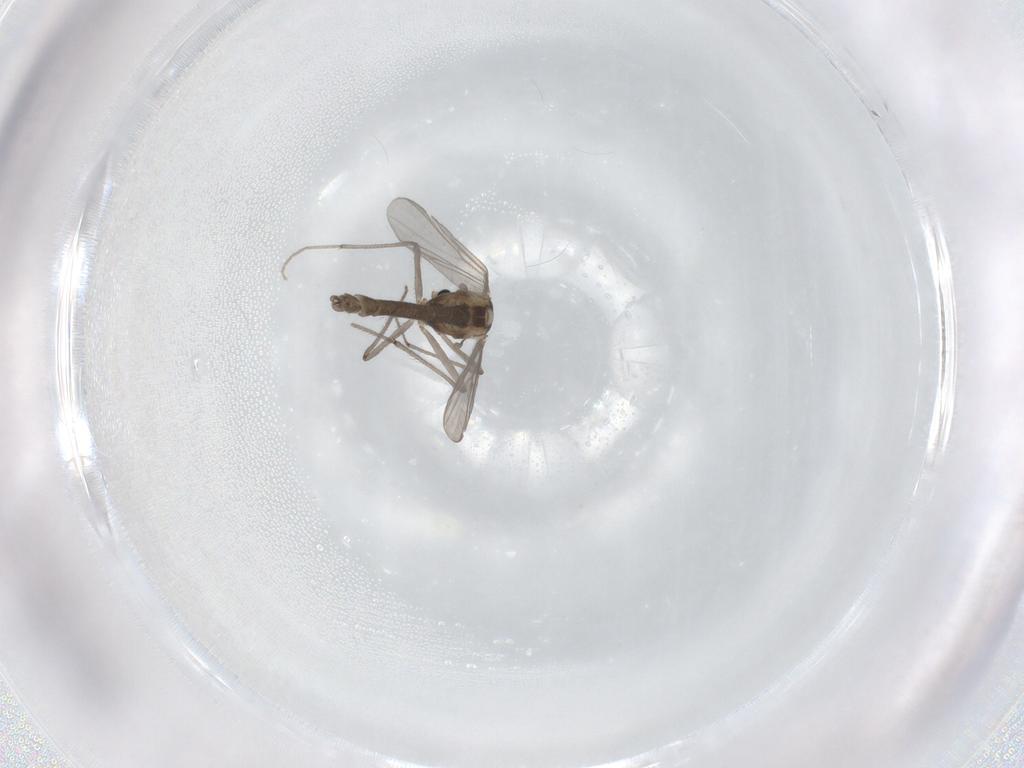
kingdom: Animalia
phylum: Arthropoda
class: Insecta
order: Diptera
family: Chironomidae
